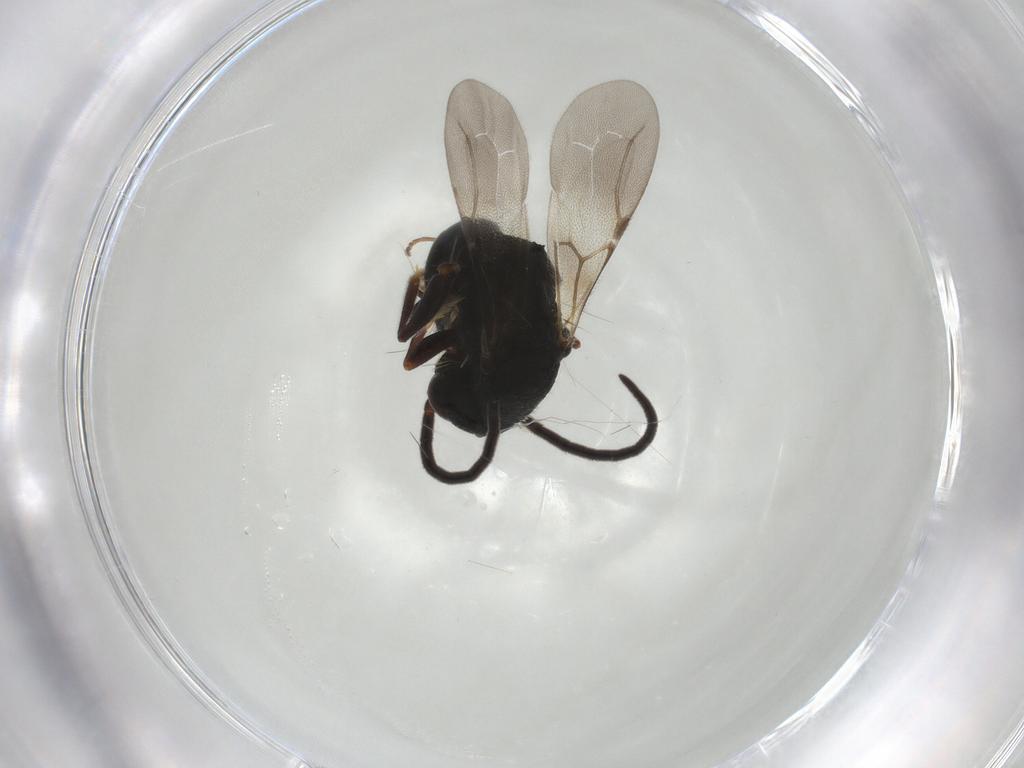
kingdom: Animalia
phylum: Arthropoda
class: Insecta
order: Hymenoptera
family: Bethylidae
